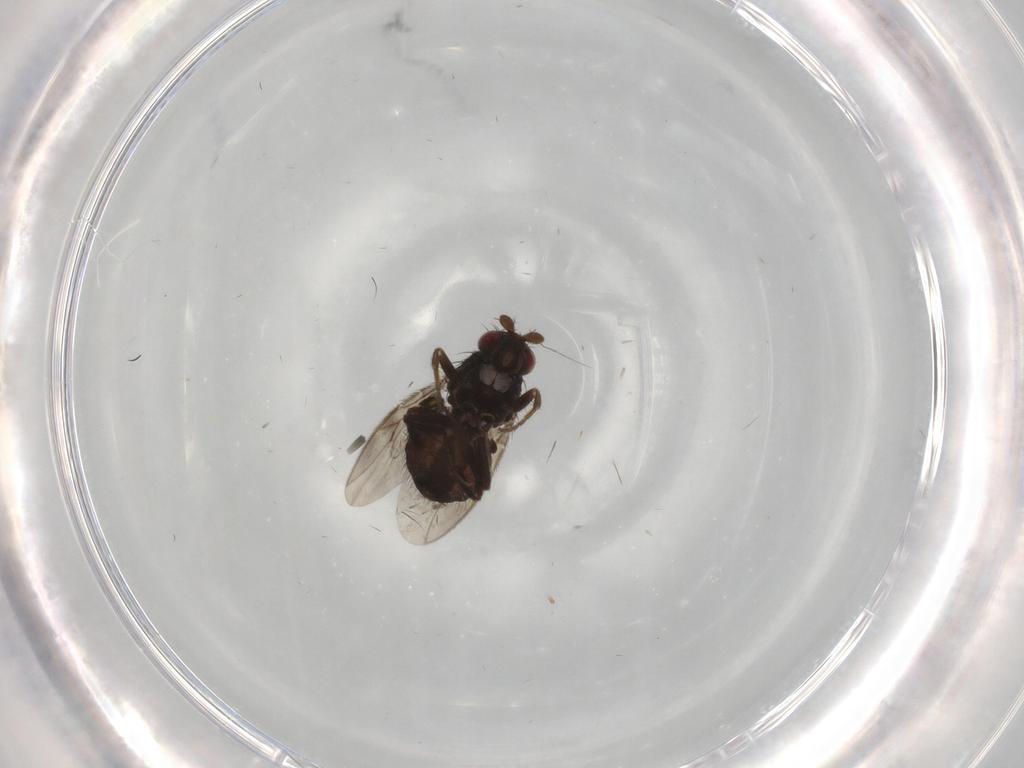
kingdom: Animalia
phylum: Arthropoda
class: Insecta
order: Diptera
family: Sphaeroceridae
